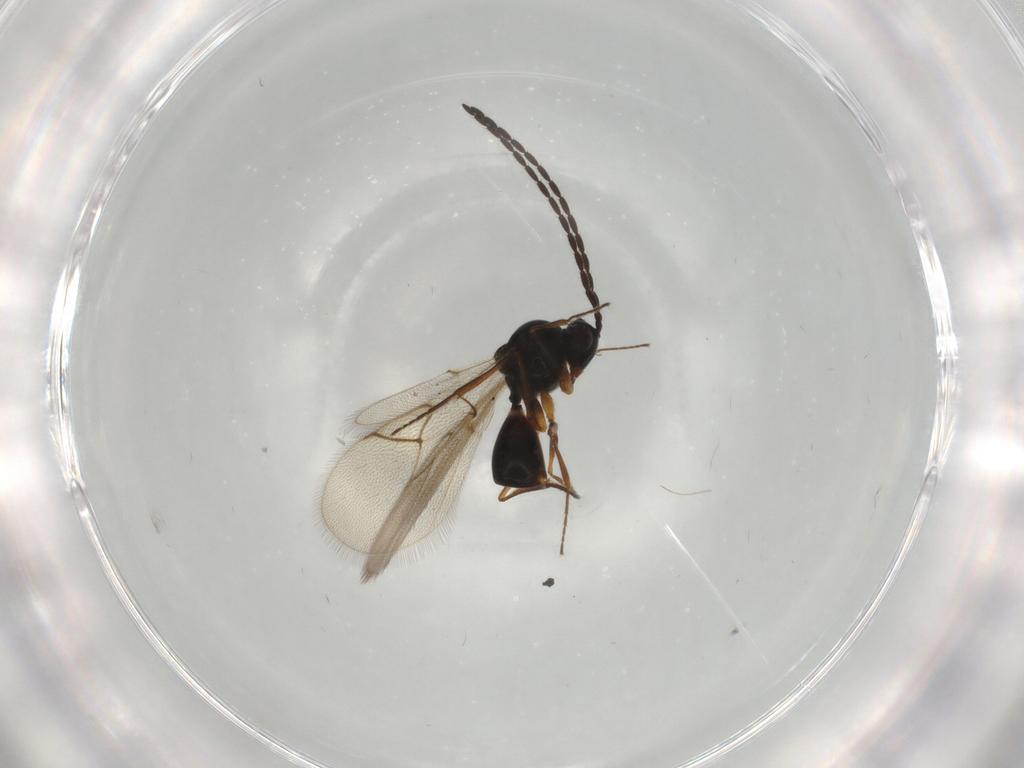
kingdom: Animalia
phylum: Arthropoda
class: Insecta
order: Hymenoptera
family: Figitidae
